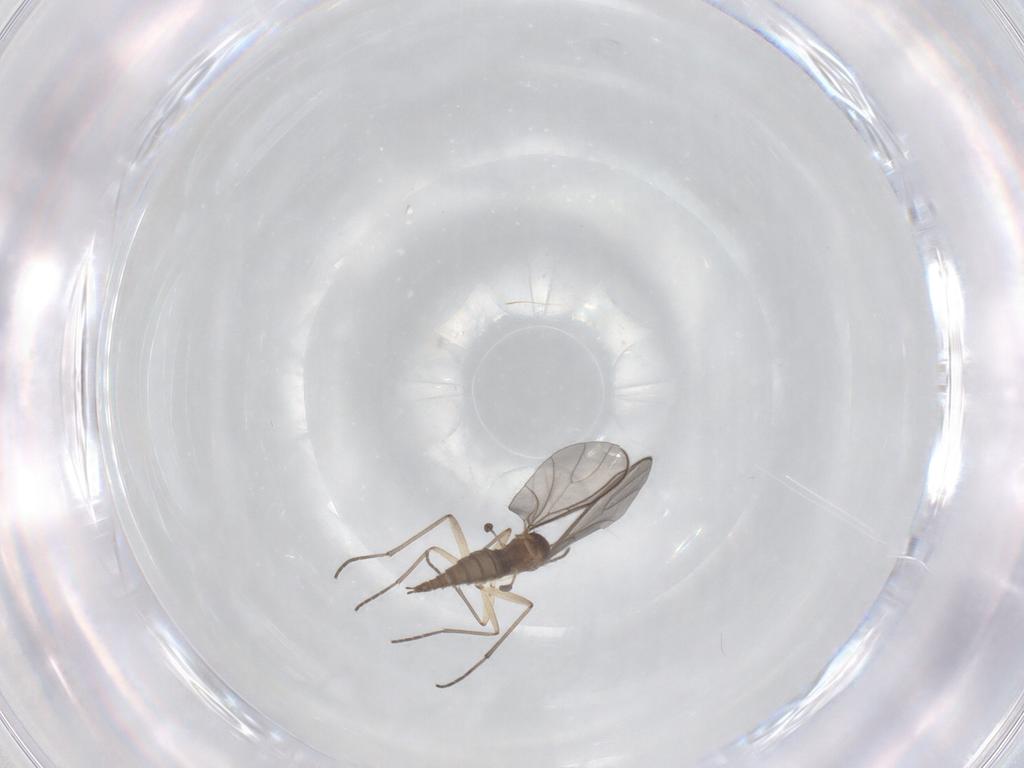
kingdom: Animalia
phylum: Arthropoda
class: Insecta
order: Diptera
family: Sciaridae
